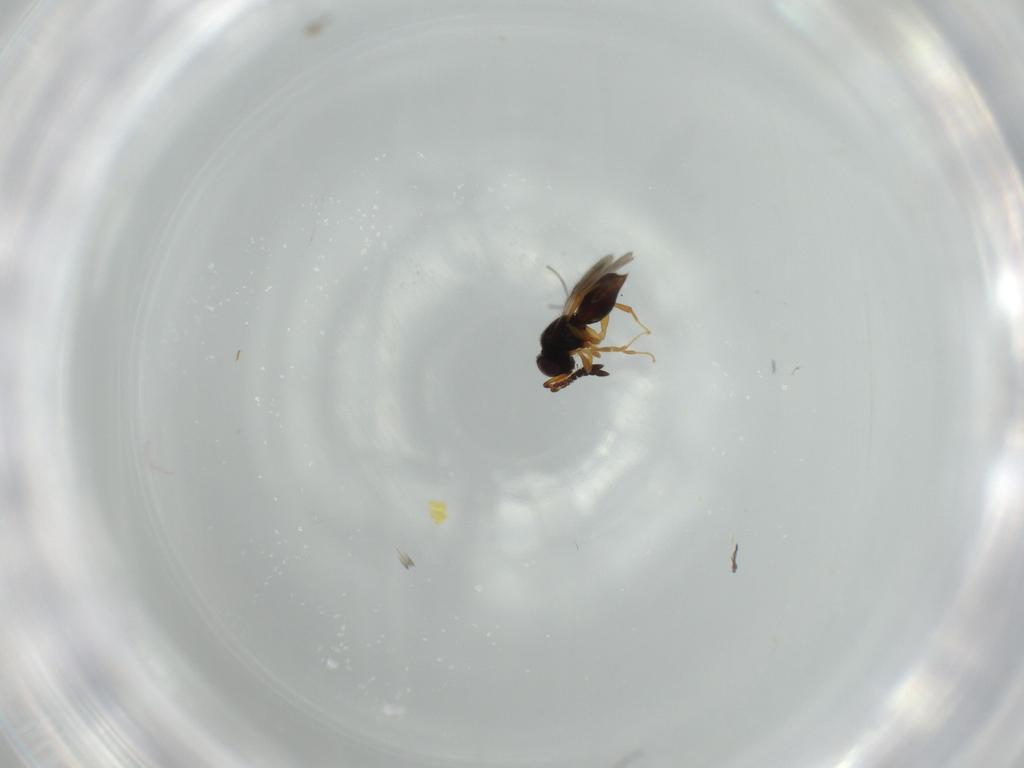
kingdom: Animalia
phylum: Arthropoda
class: Insecta
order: Hymenoptera
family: Ceraphronidae
